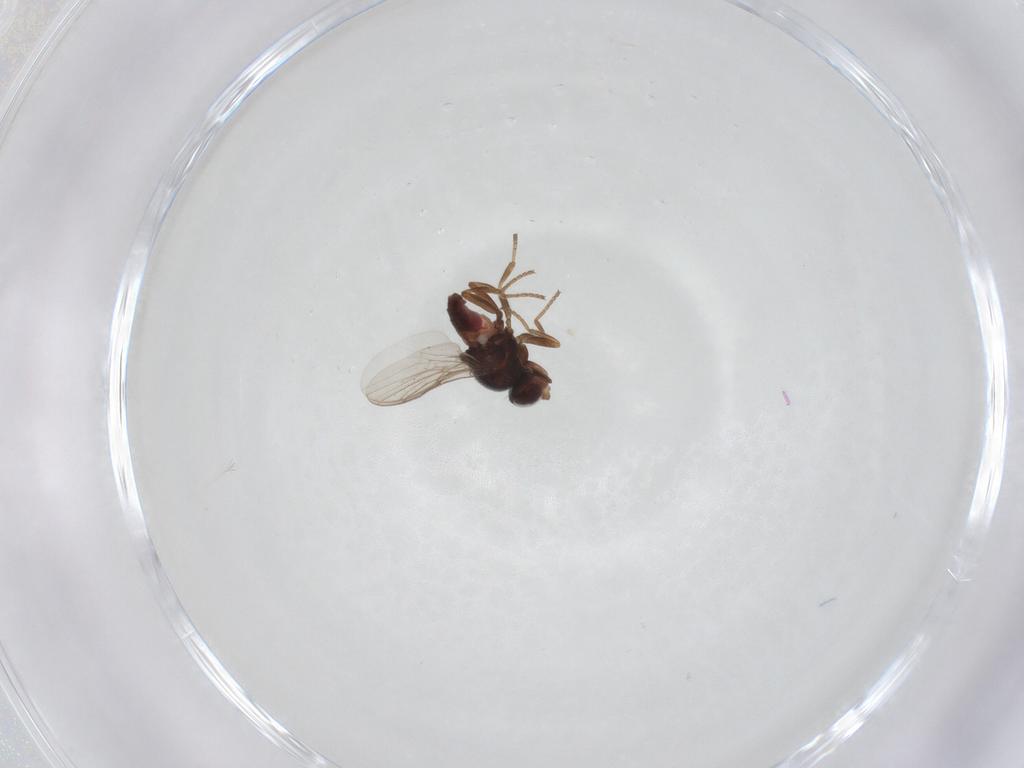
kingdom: Animalia
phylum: Arthropoda
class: Insecta
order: Diptera
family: Chloropidae
